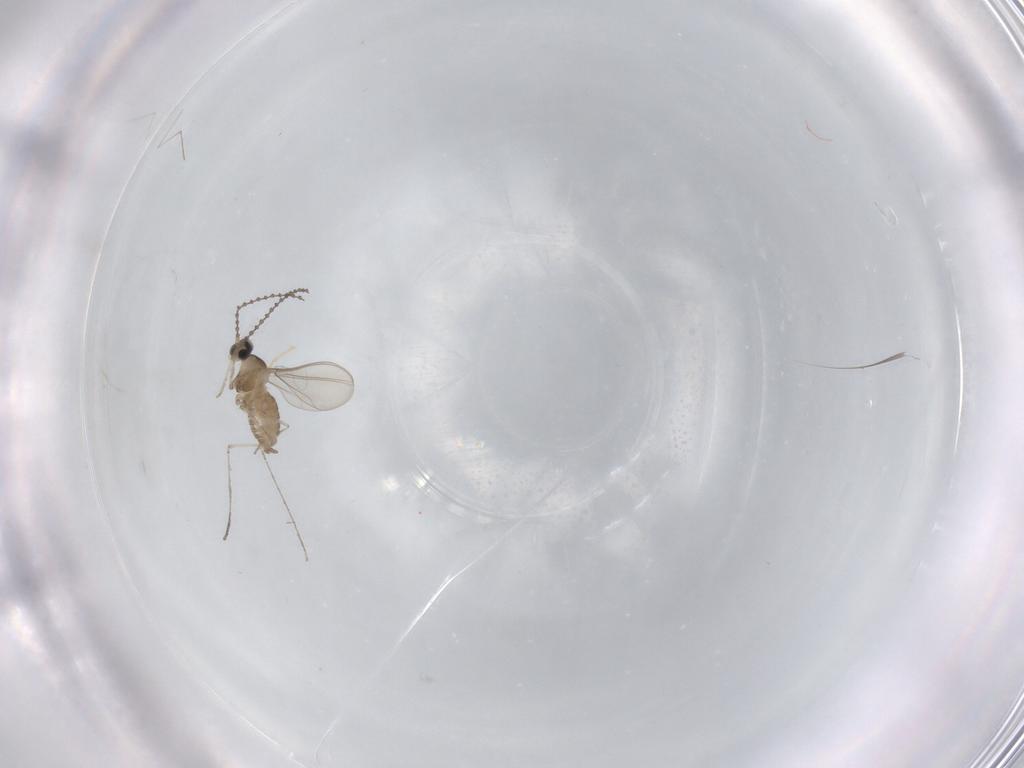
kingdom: Animalia
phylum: Arthropoda
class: Insecta
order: Diptera
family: Cecidomyiidae
